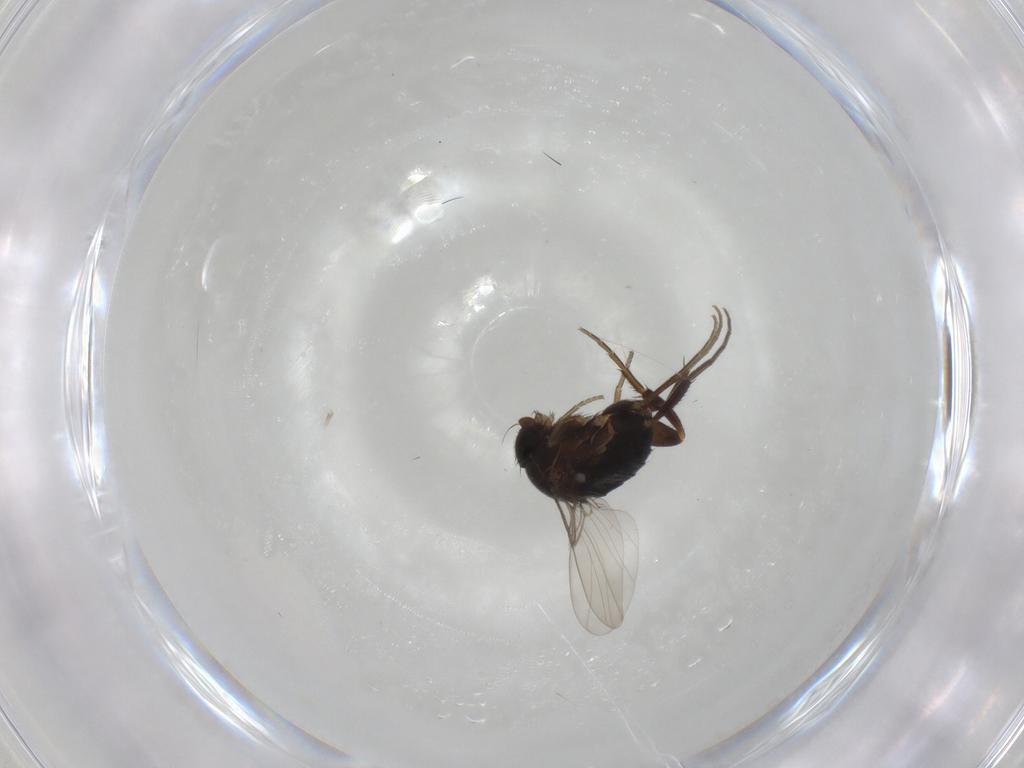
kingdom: Animalia
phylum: Arthropoda
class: Insecta
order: Diptera
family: Phoridae
